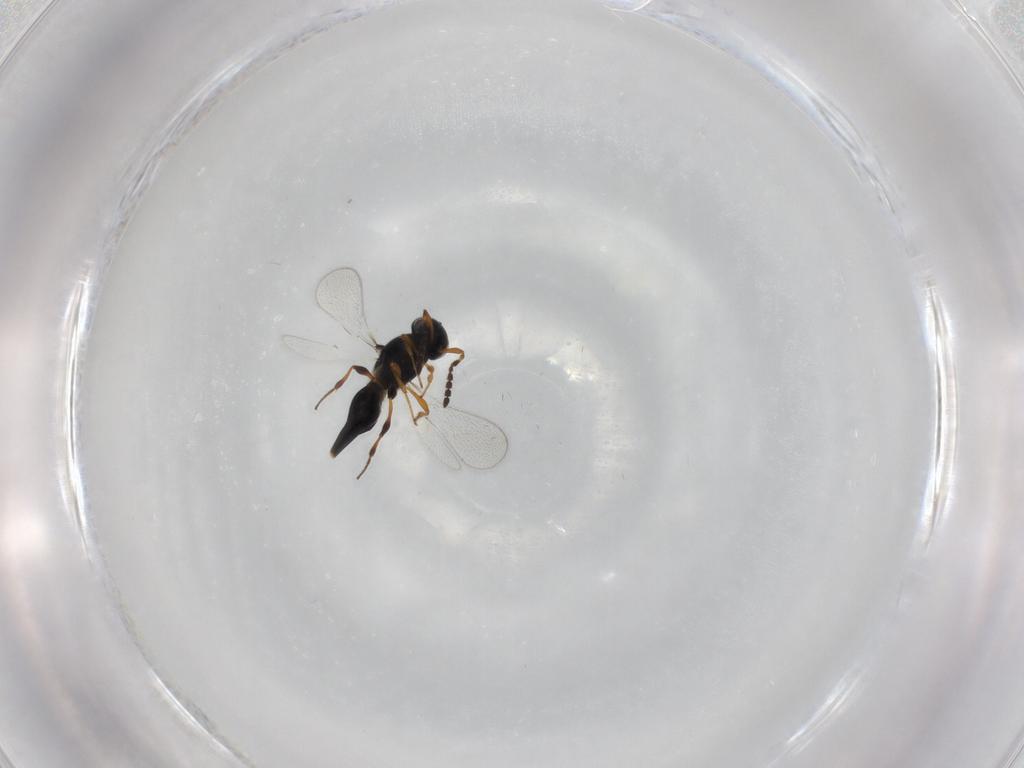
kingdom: Animalia
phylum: Arthropoda
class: Insecta
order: Hymenoptera
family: Platygastridae
